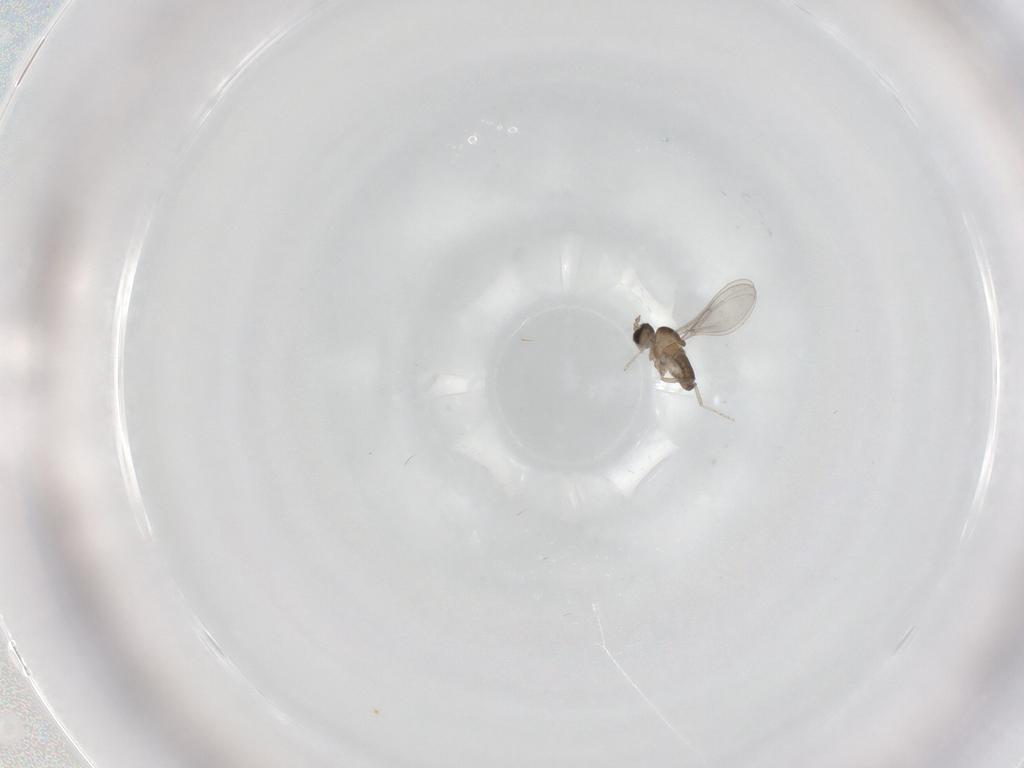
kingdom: Animalia
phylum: Arthropoda
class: Insecta
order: Diptera
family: Cecidomyiidae
